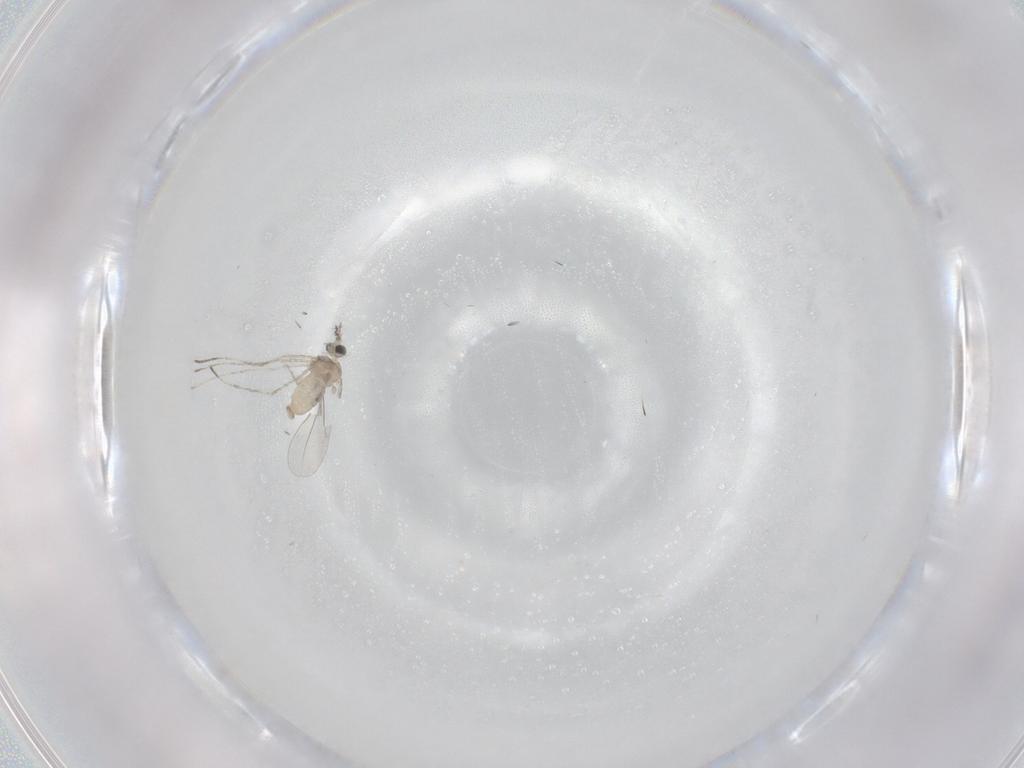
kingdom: Animalia
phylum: Arthropoda
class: Insecta
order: Diptera
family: Cecidomyiidae
